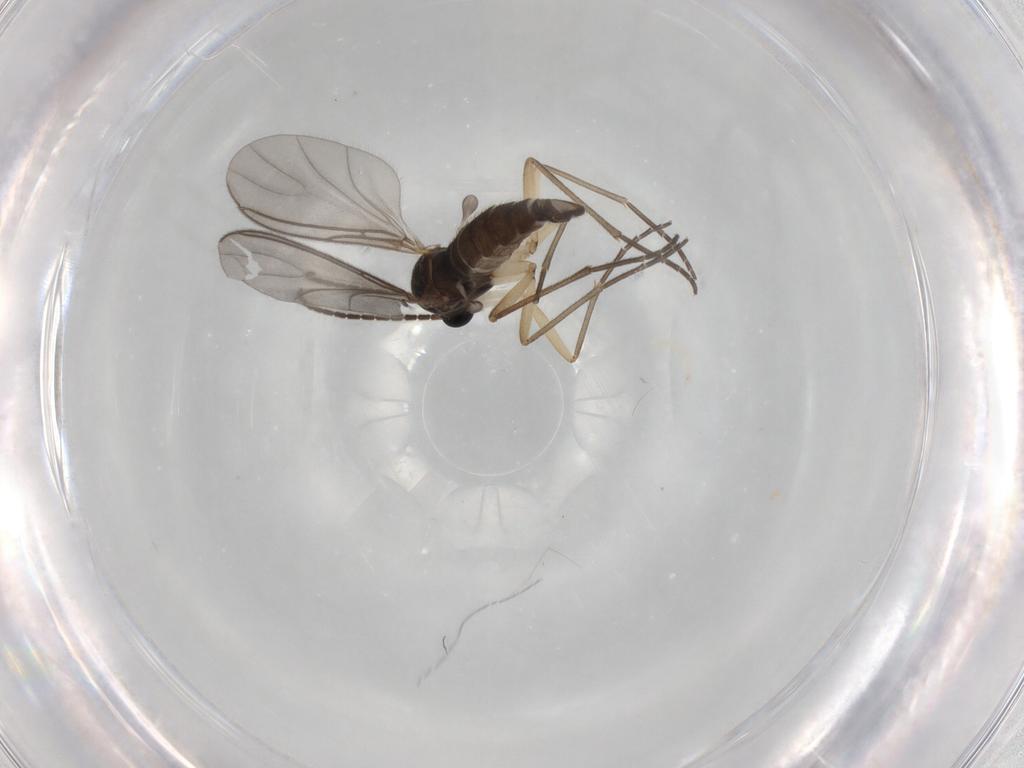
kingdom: Animalia
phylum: Arthropoda
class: Insecta
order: Diptera
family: Sciaridae
